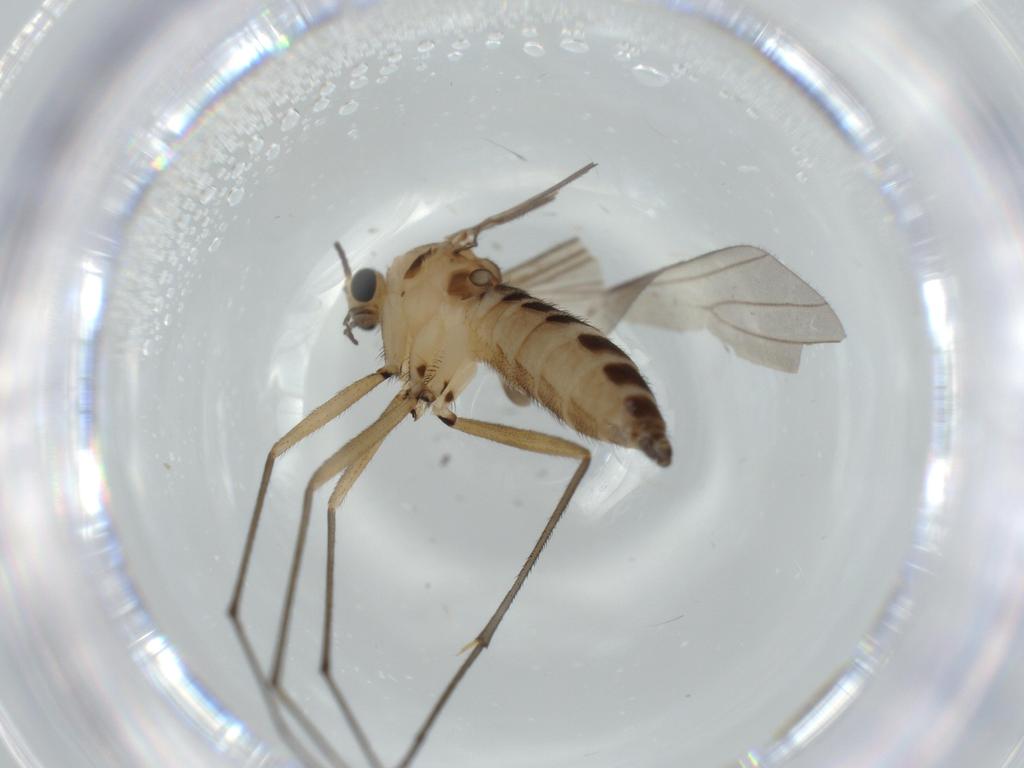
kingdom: Animalia
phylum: Arthropoda
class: Insecta
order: Diptera
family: Sciaridae
